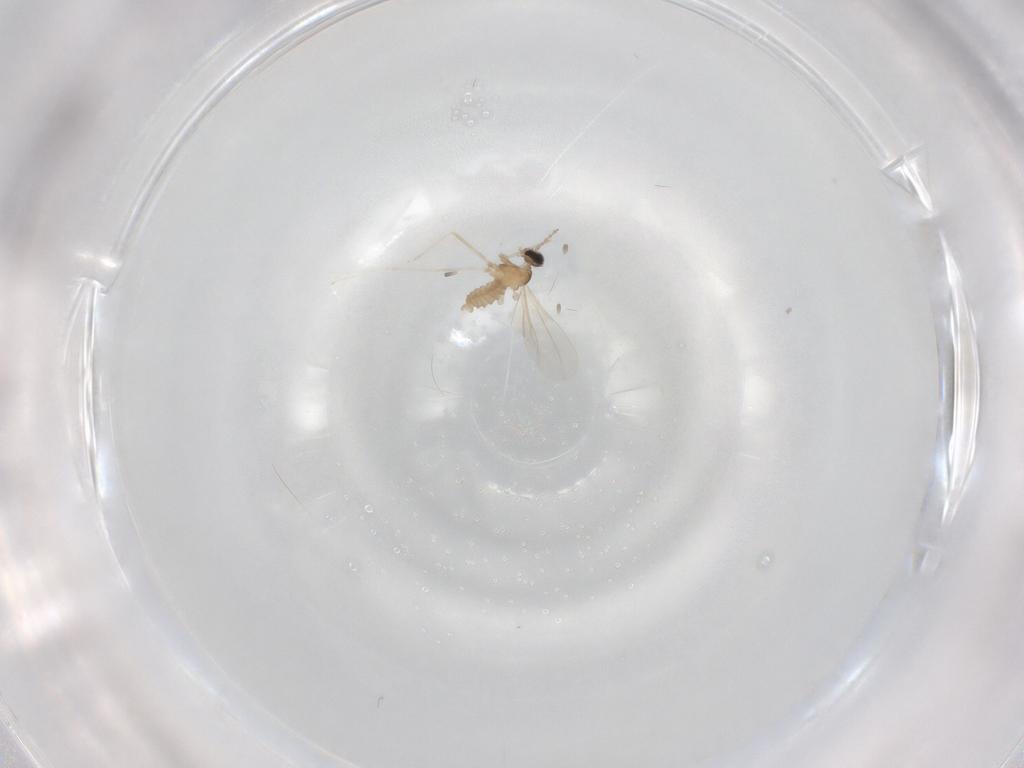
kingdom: Animalia
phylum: Arthropoda
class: Insecta
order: Diptera
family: Cecidomyiidae
